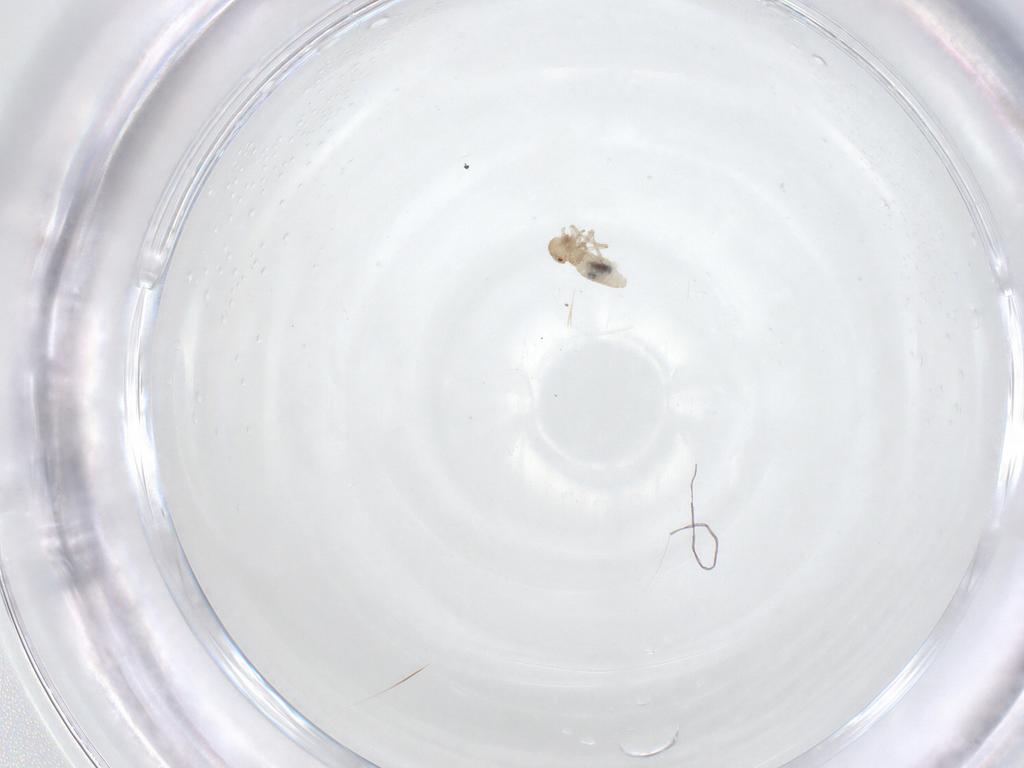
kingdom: Animalia
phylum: Arthropoda
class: Insecta
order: Psocodea
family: Philotarsidae
